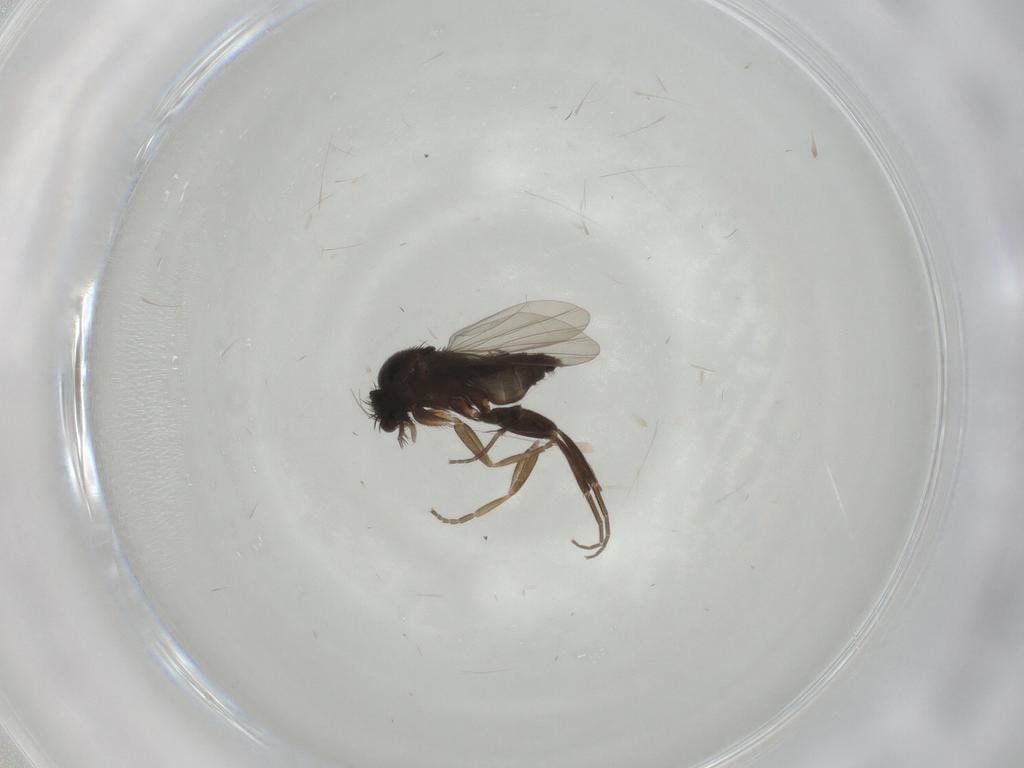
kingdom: Animalia
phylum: Arthropoda
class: Insecta
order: Diptera
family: Phoridae
